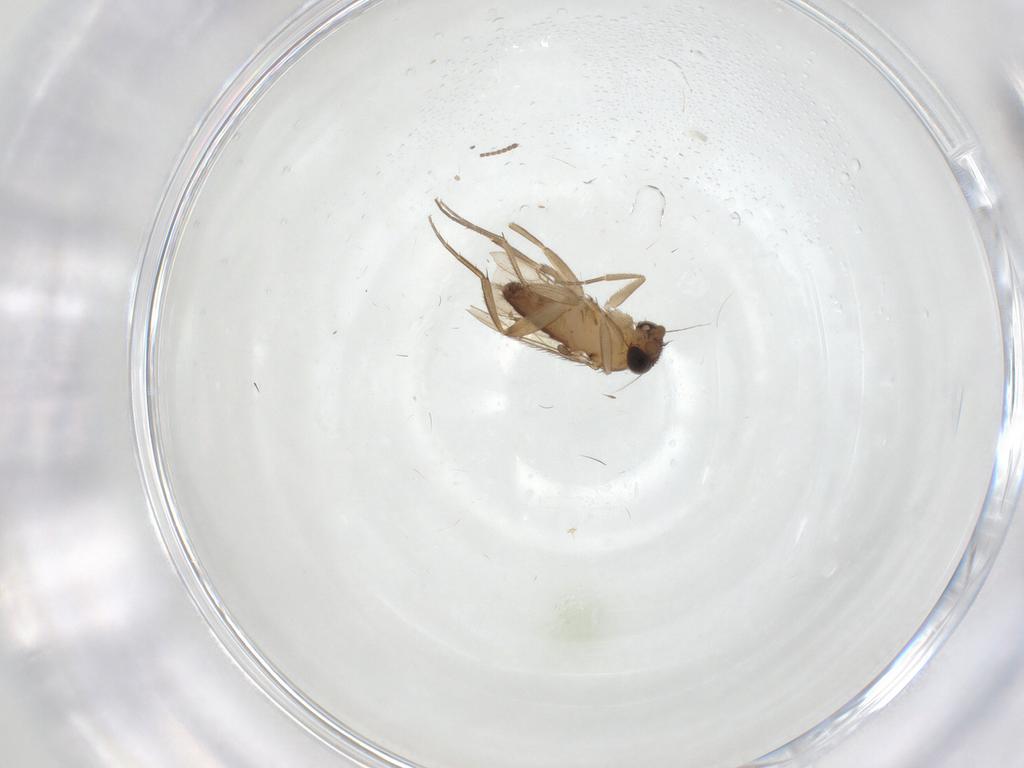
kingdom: Animalia
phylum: Arthropoda
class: Insecta
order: Diptera
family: Phoridae
